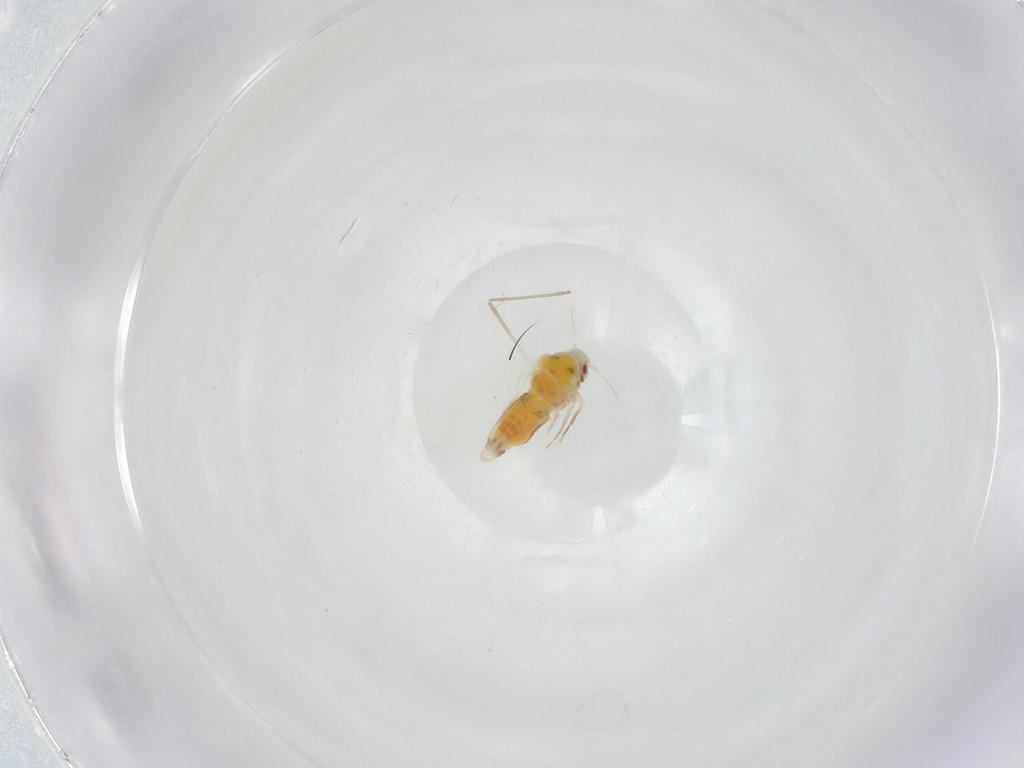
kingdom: Animalia
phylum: Arthropoda
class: Insecta
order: Hemiptera
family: Aleyrodidae
